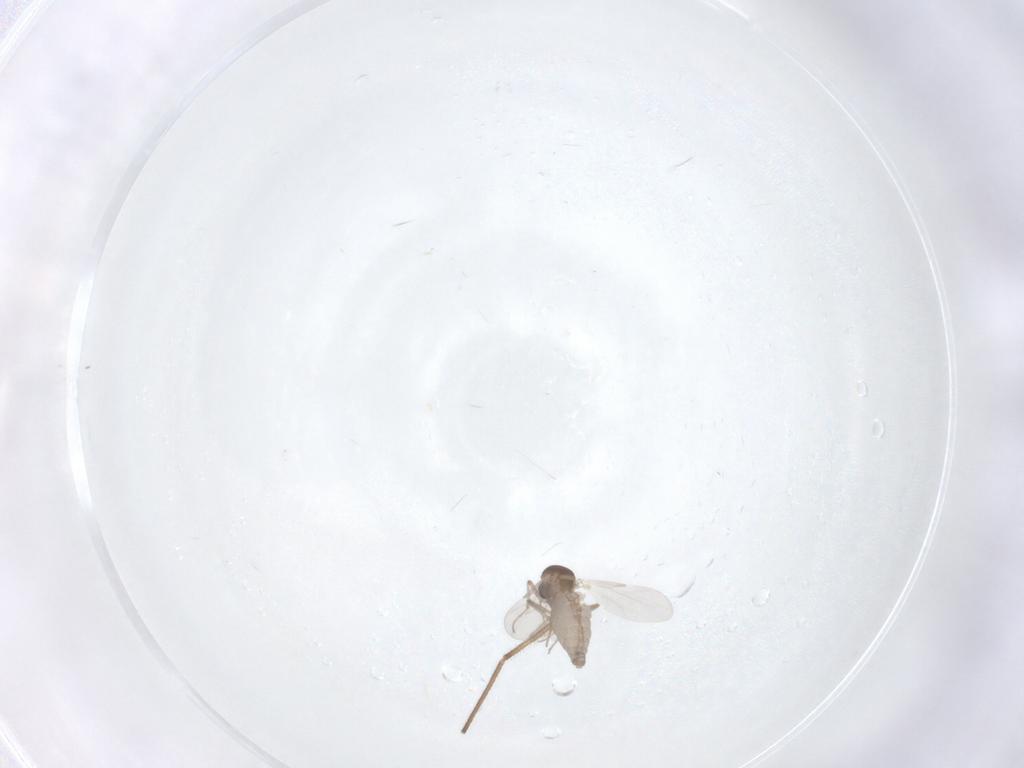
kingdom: Animalia
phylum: Arthropoda
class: Insecta
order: Diptera
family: Ceratopogonidae
